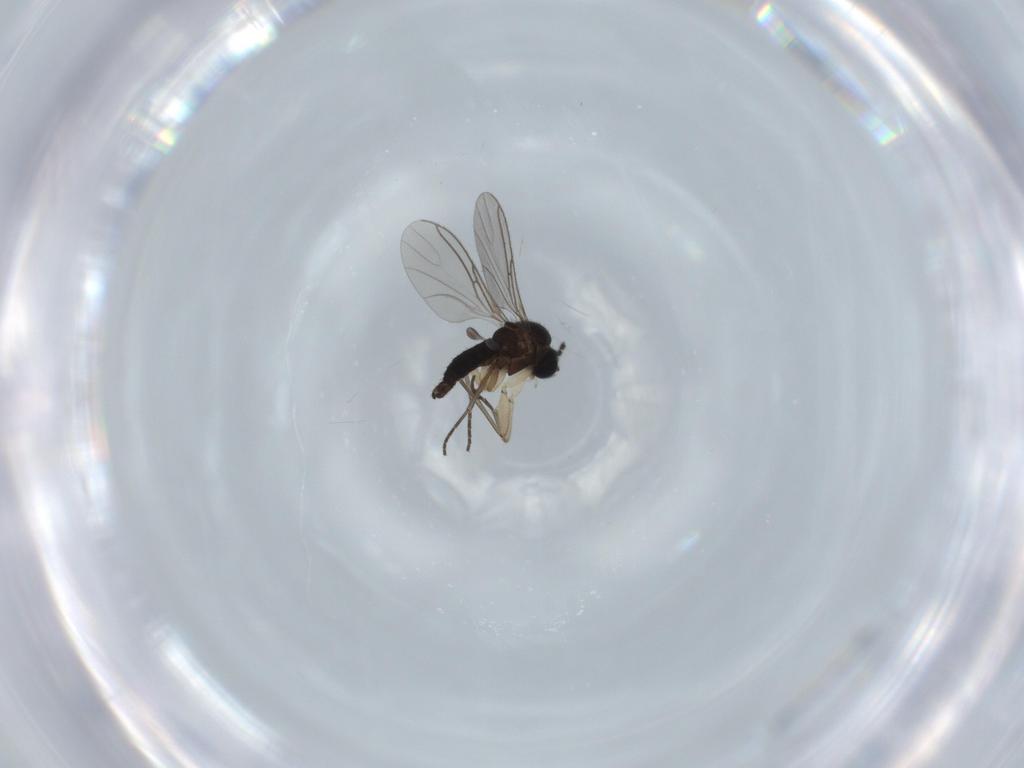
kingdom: Animalia
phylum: Arthropoda
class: Insecta
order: Diptera
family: Sciaridae
